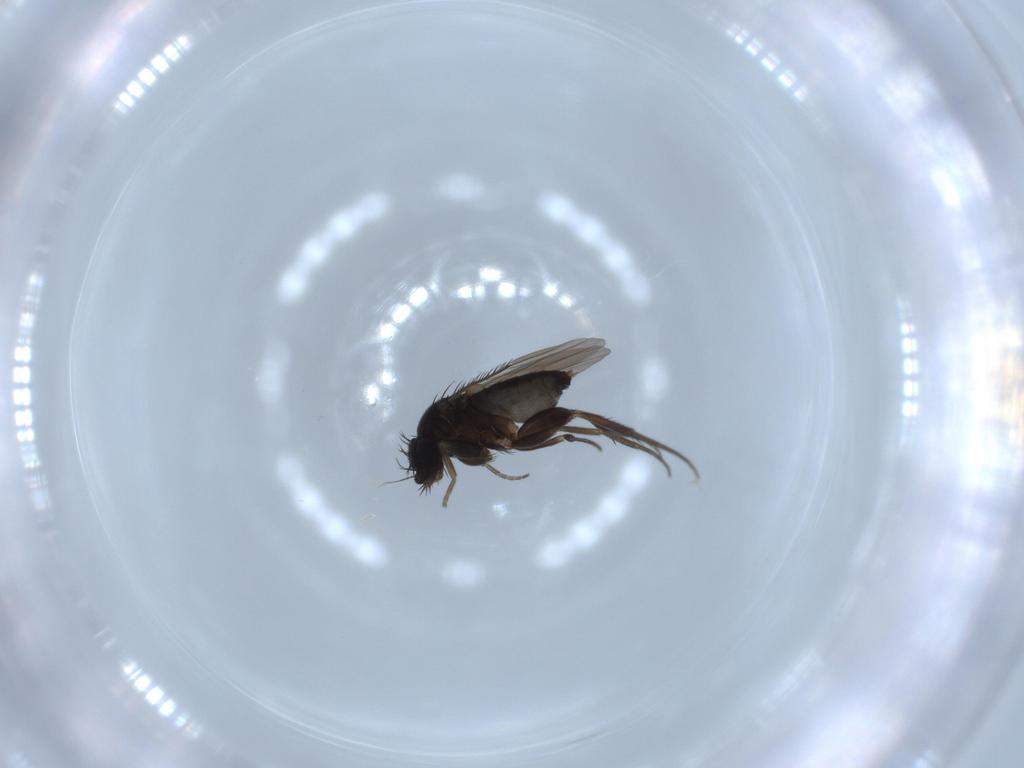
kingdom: Animalia
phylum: Arthropoda
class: Insecta
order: Diptera
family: Phoridae
